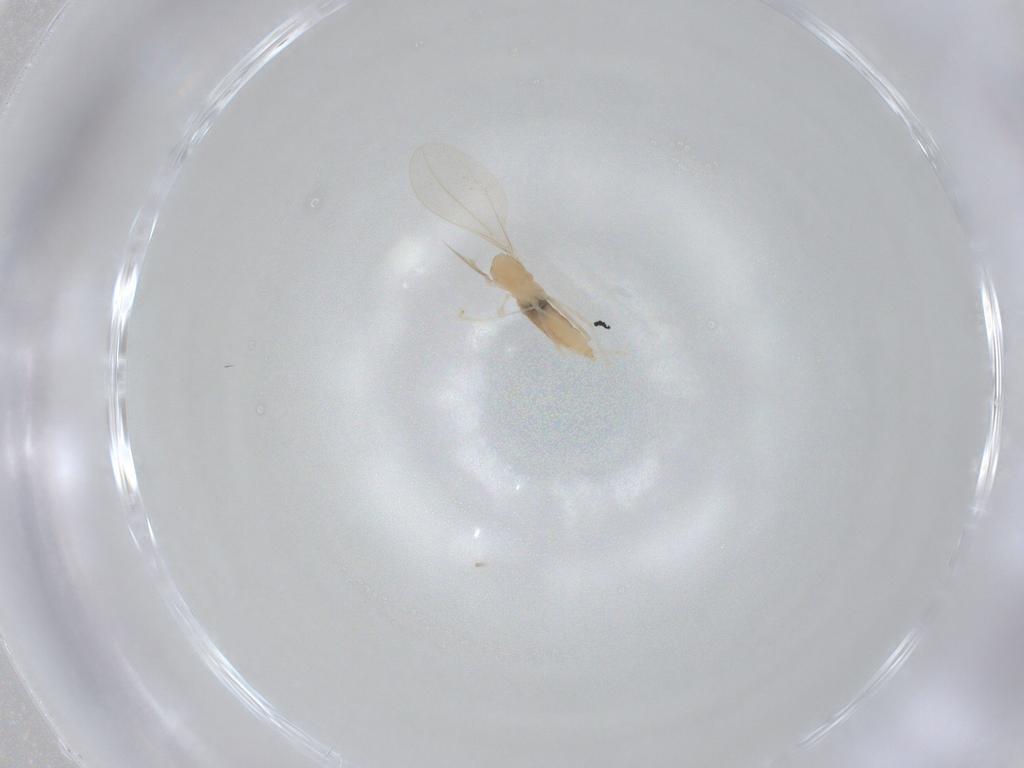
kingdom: Animalia
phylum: Arthropoda
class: Insecta
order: Diptera
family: Cecidomyiidae
